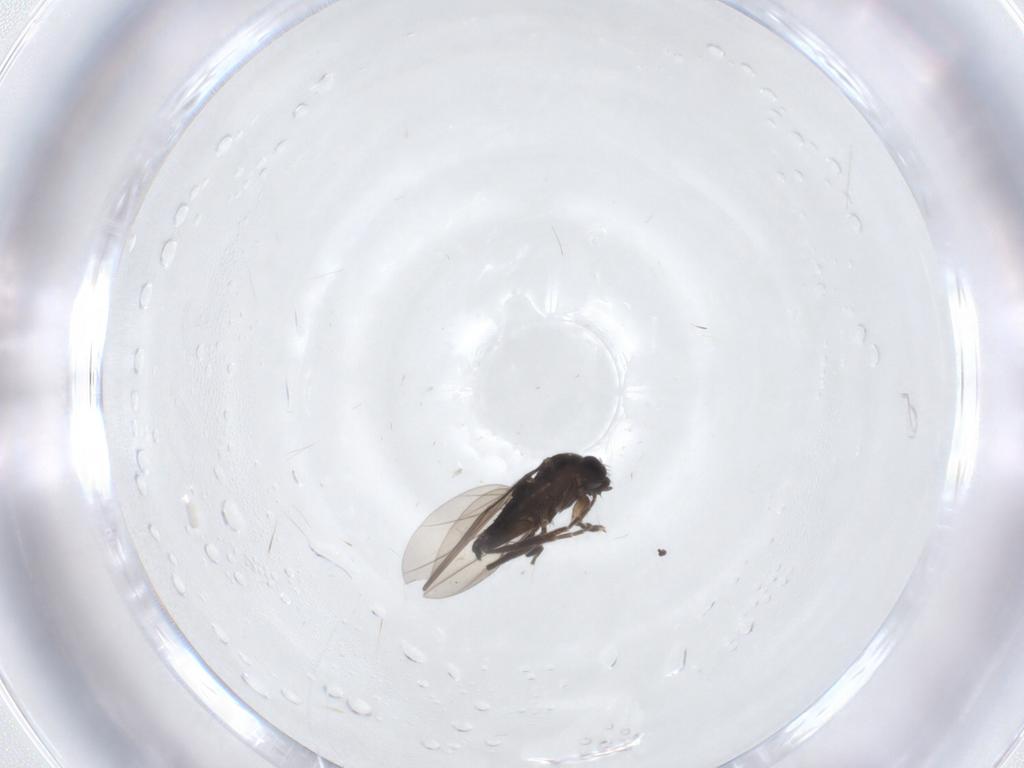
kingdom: Animalia
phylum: Arthropoda
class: Insecta
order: Diptera
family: Phoridae
